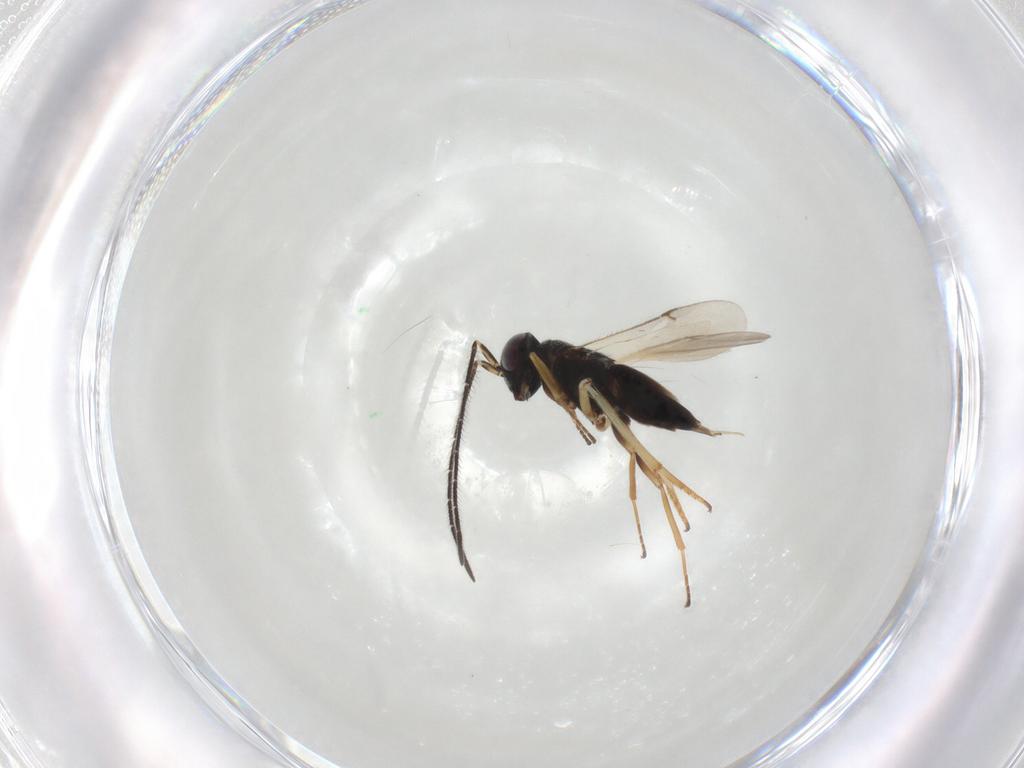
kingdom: Animalia
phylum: Arthropoda
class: Insecta
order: Hymenoptera
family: Encyrtidae
